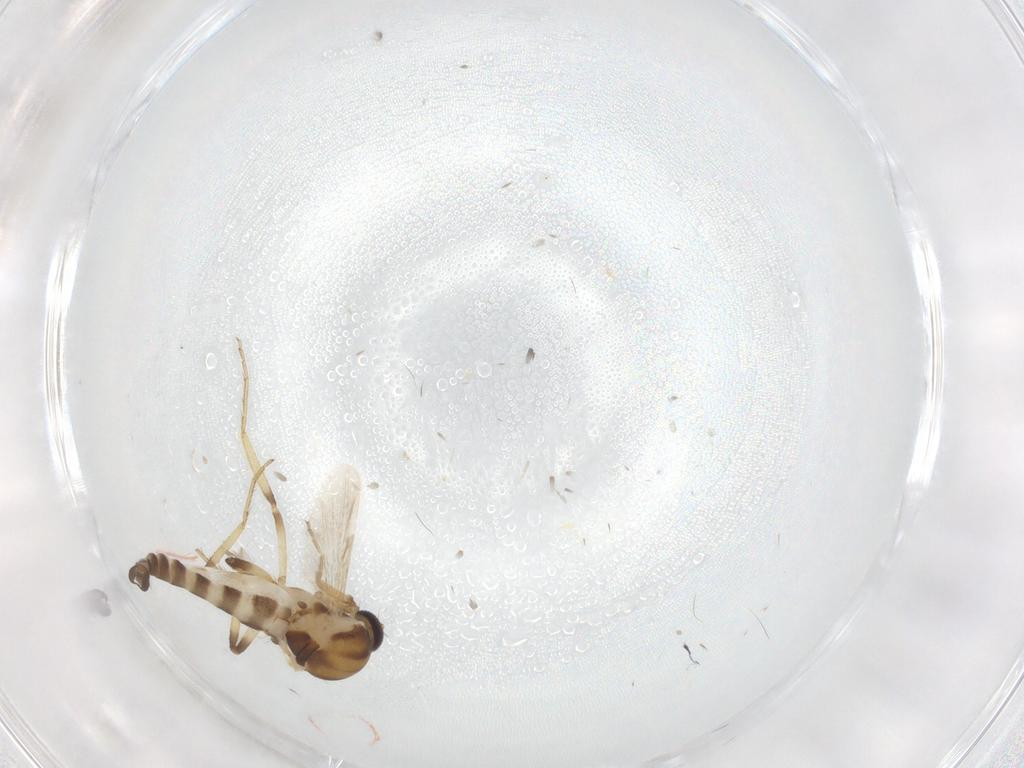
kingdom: Animalia
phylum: Arthropoda
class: Insecta
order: Diptera
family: Ceratopogonidae
